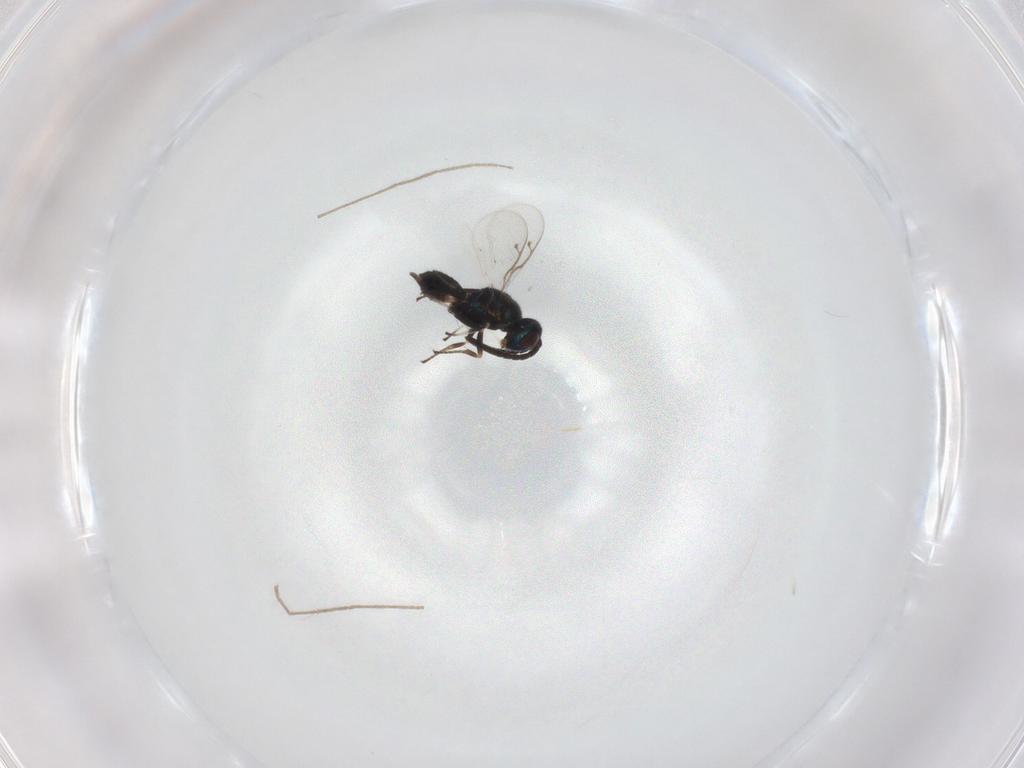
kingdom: Animalia
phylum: Arthropoda
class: Insecta
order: Hymenoptera
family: Eupelmidae
